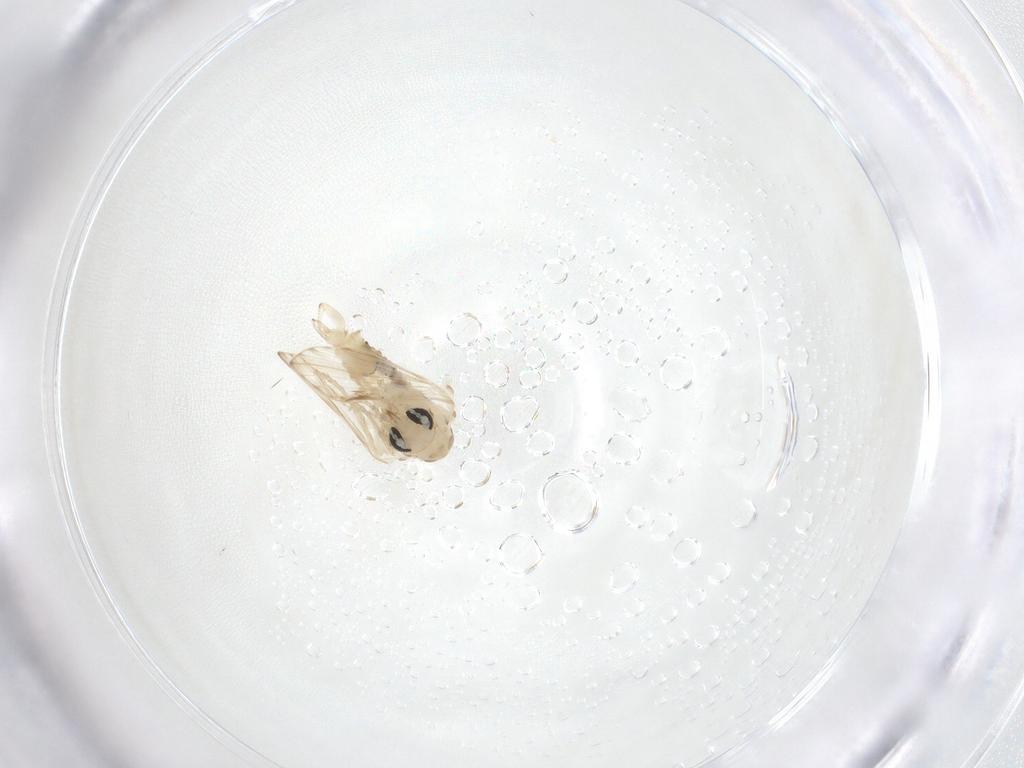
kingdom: Animalia
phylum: Arthropoda
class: Insecta
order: Diptera
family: Psychodidae
